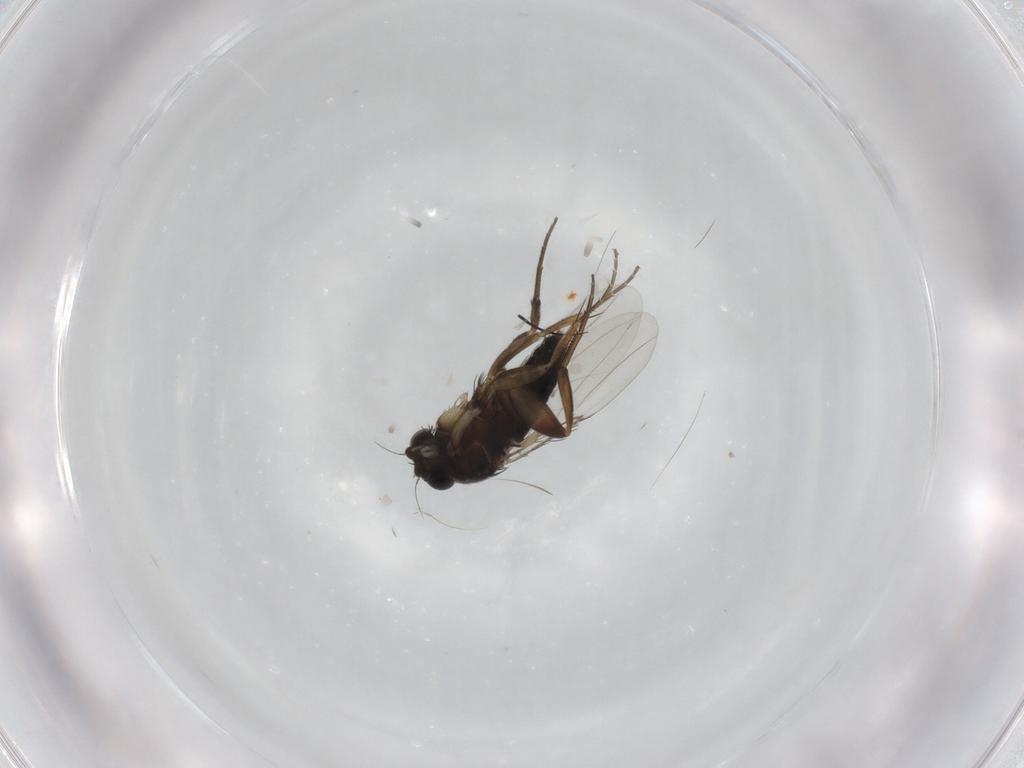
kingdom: Animalia
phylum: Arthropoda
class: Insecta
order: Diptera
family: Phoridae
